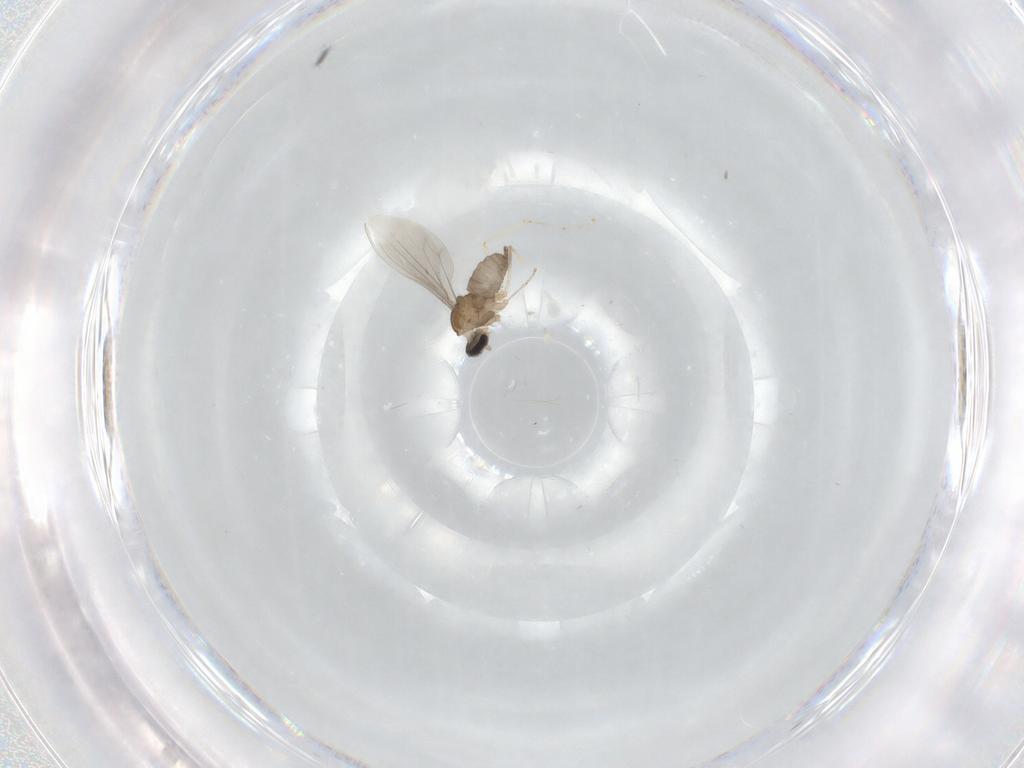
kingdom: Animalia
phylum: Arthropoda
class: Insecta
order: Diptera
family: Cecidomyiidae
